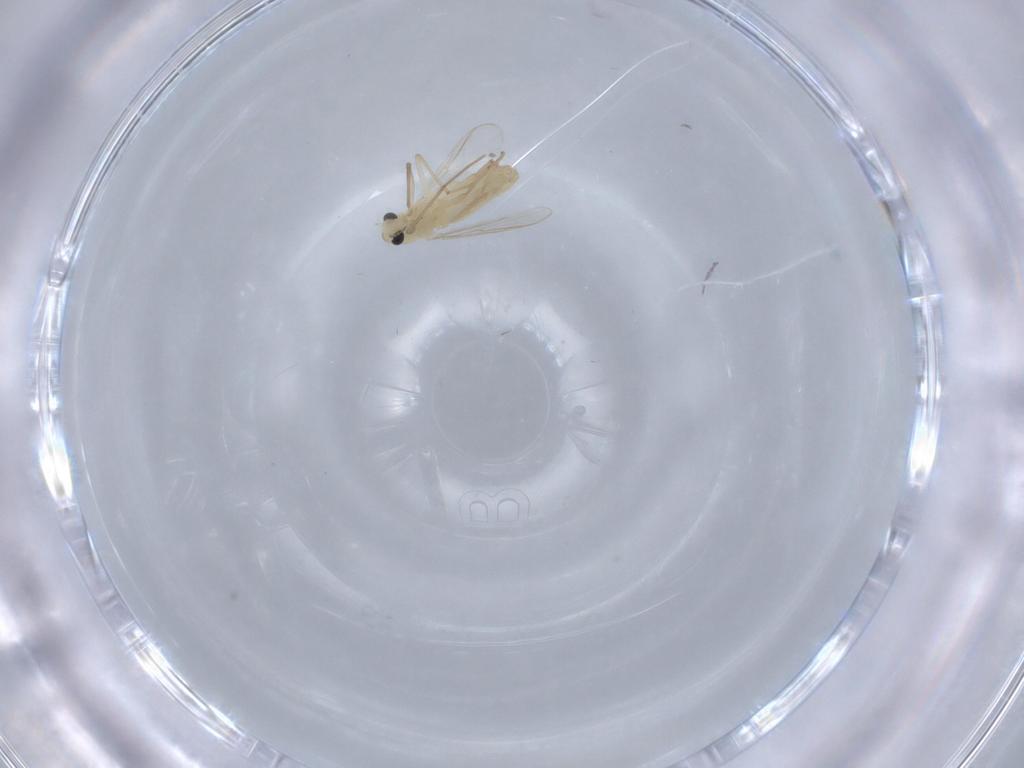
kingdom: Animalia
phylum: Arthropoda
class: Insecta
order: Diptera
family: Chironomidae
